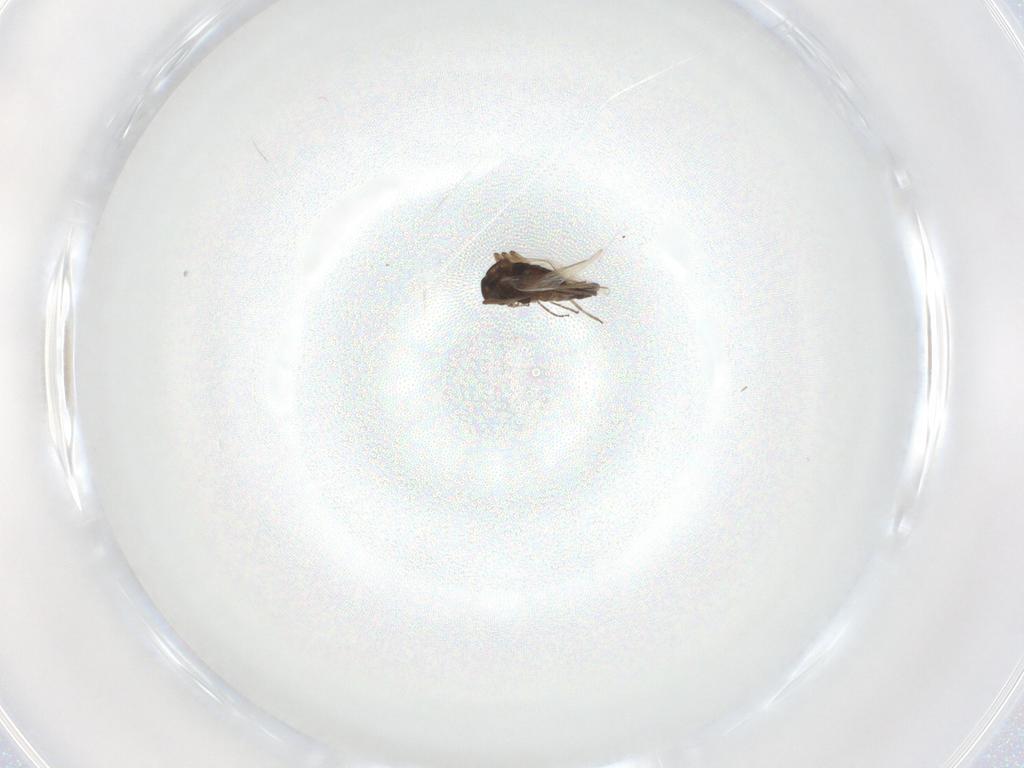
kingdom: Animalia
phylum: Arthropoda
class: Insecta
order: Diptera
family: Chironomidae
